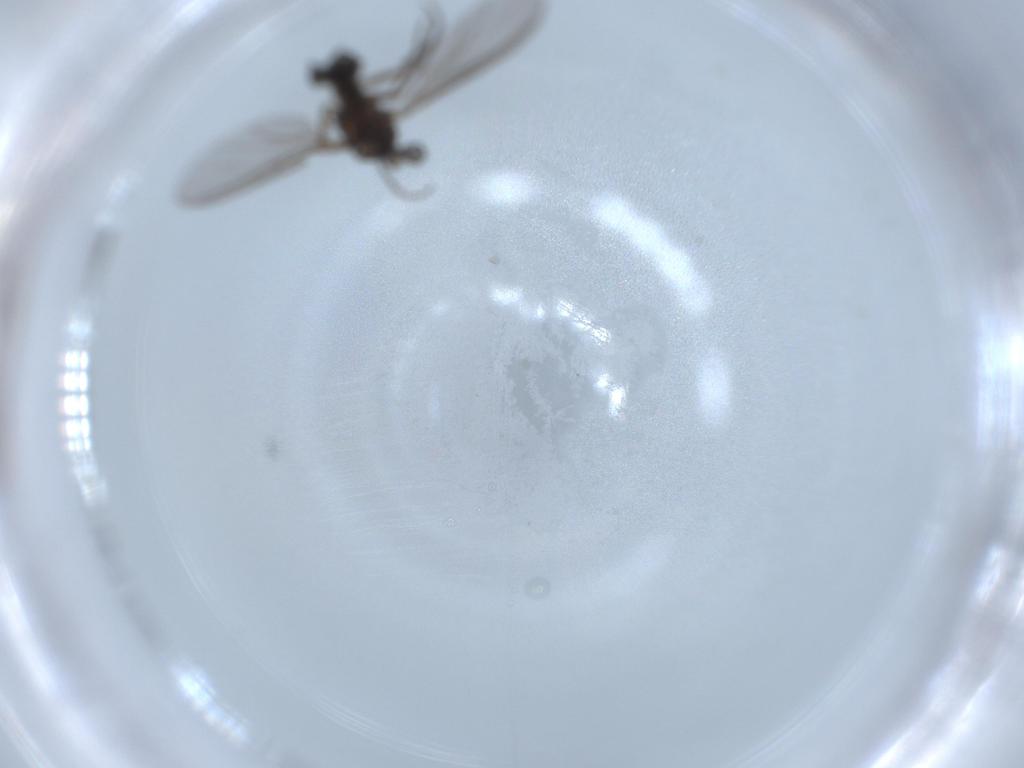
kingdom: Animalia
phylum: Arthropoda
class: Insecta
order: Diptera
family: Sciaridae
